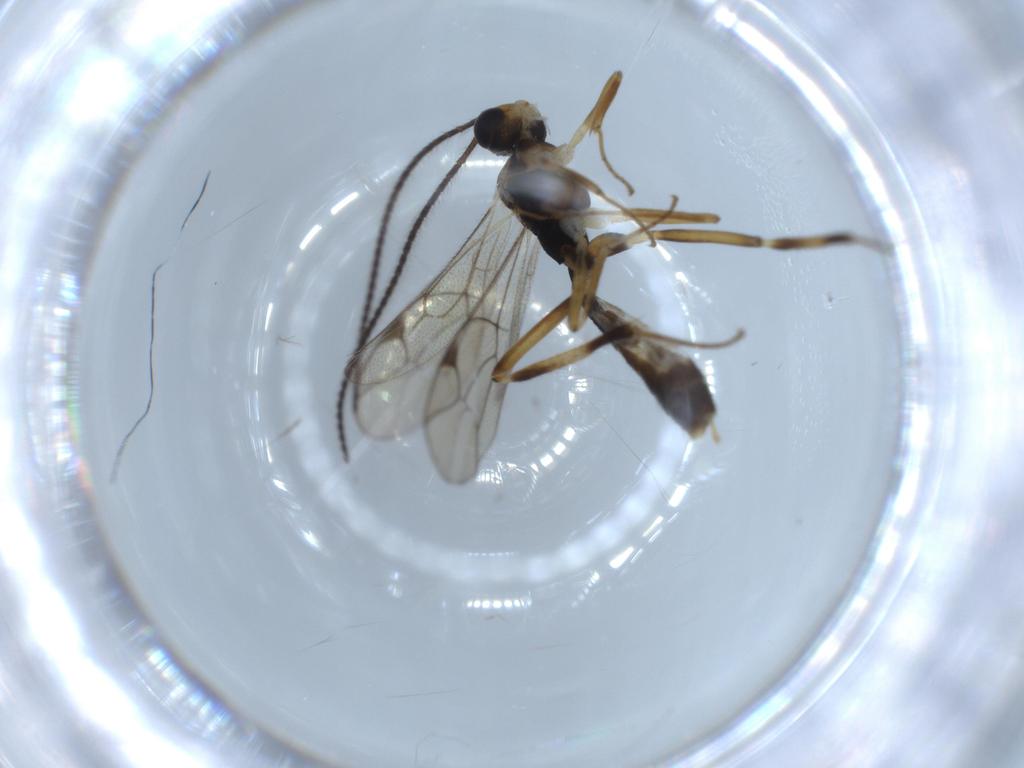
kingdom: Animalia
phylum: Arthropoda
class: Insecta
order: Hymenoptera
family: Ichneumonidae
